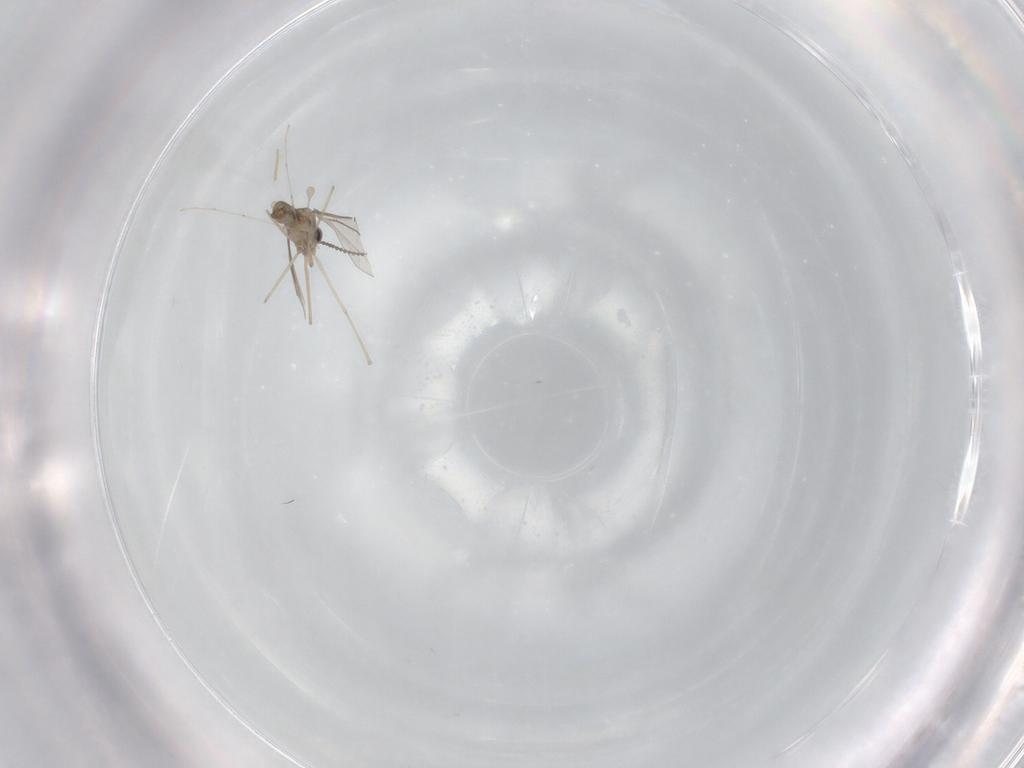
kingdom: Animalia
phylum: Arthropoda
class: Insecta
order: Diptera
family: Cecidomyiidae
